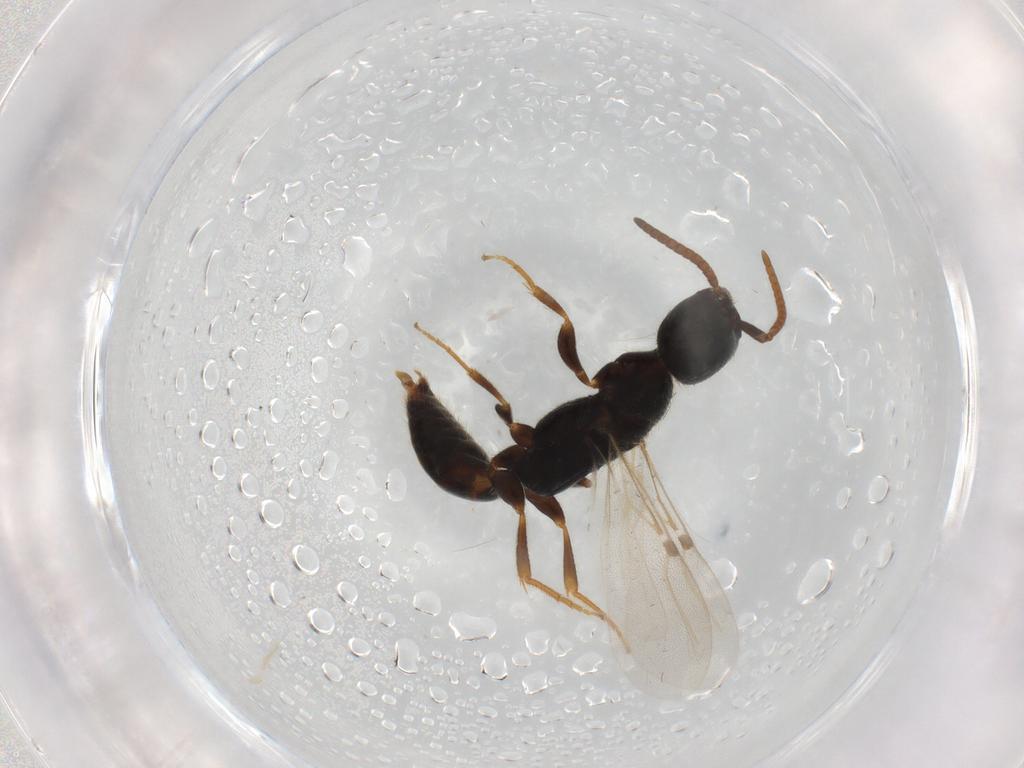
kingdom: Animalia
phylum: Arthropoda
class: Insecta
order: Hymenoptera
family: Bethylidae
